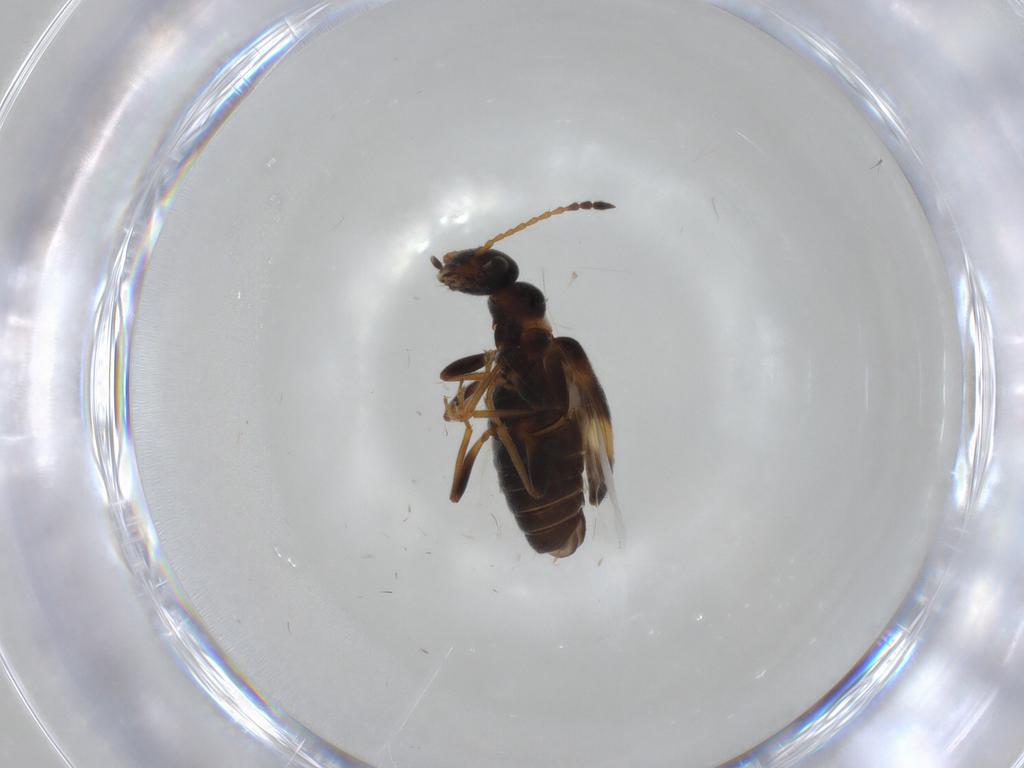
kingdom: Animalia
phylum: Arthropoda
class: Insecta
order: Coleoptera
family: Anthicidae
